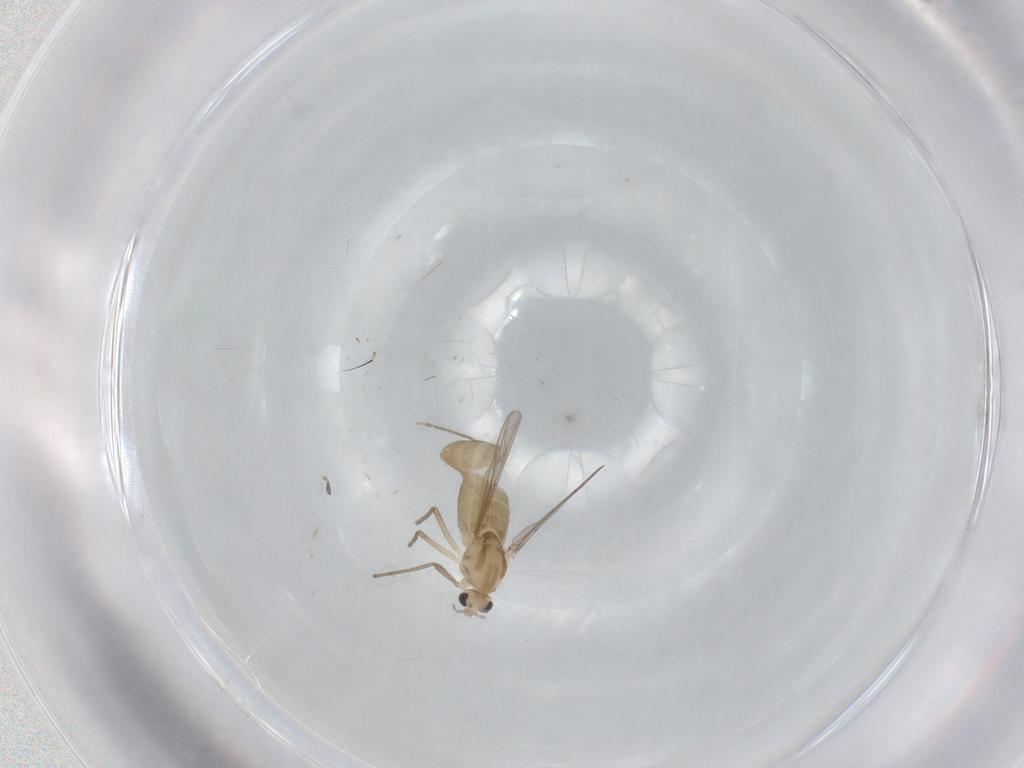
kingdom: Animalia
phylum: Arthropoda
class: Insecta
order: Diptera
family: Chironomidae
